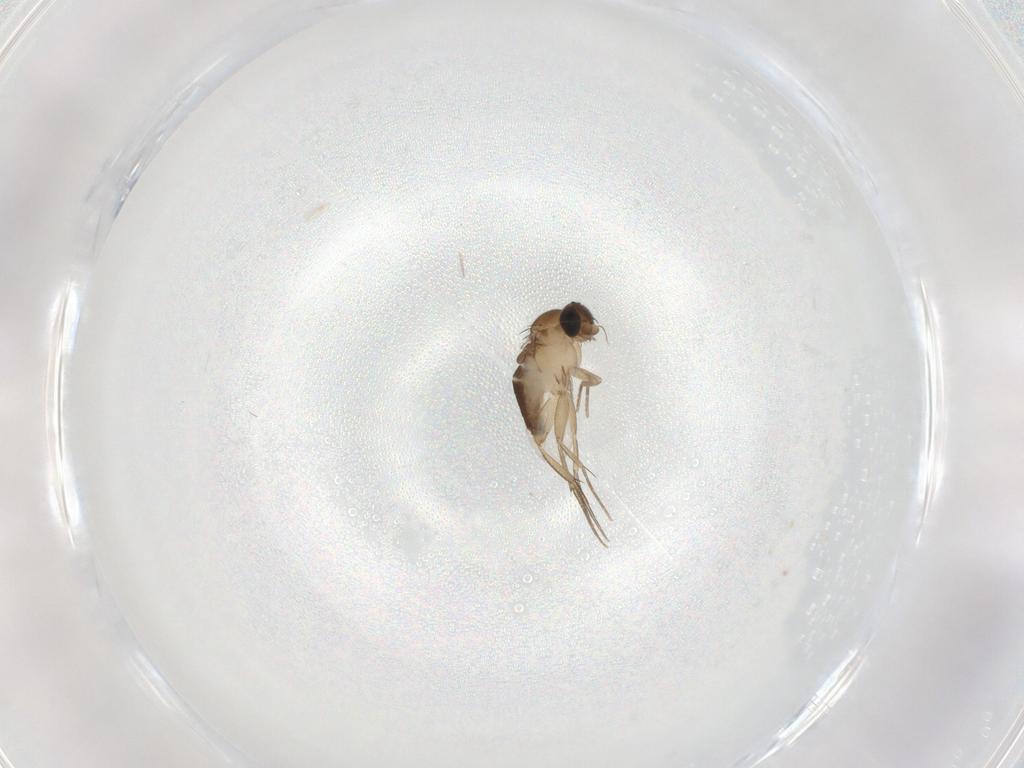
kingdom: Animalia
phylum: Arthropoda
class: Insecta
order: Diptera
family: Phoridae
